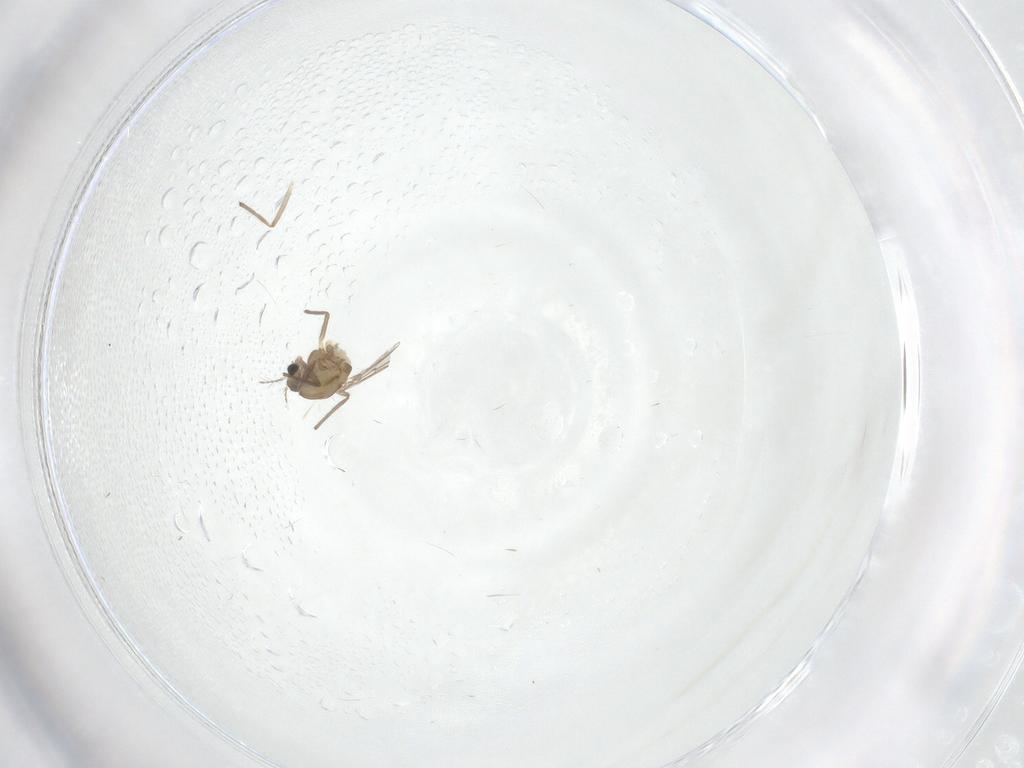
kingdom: Animalia
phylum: Arthropoda
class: Insecta
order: Diptera
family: Chironomidae
